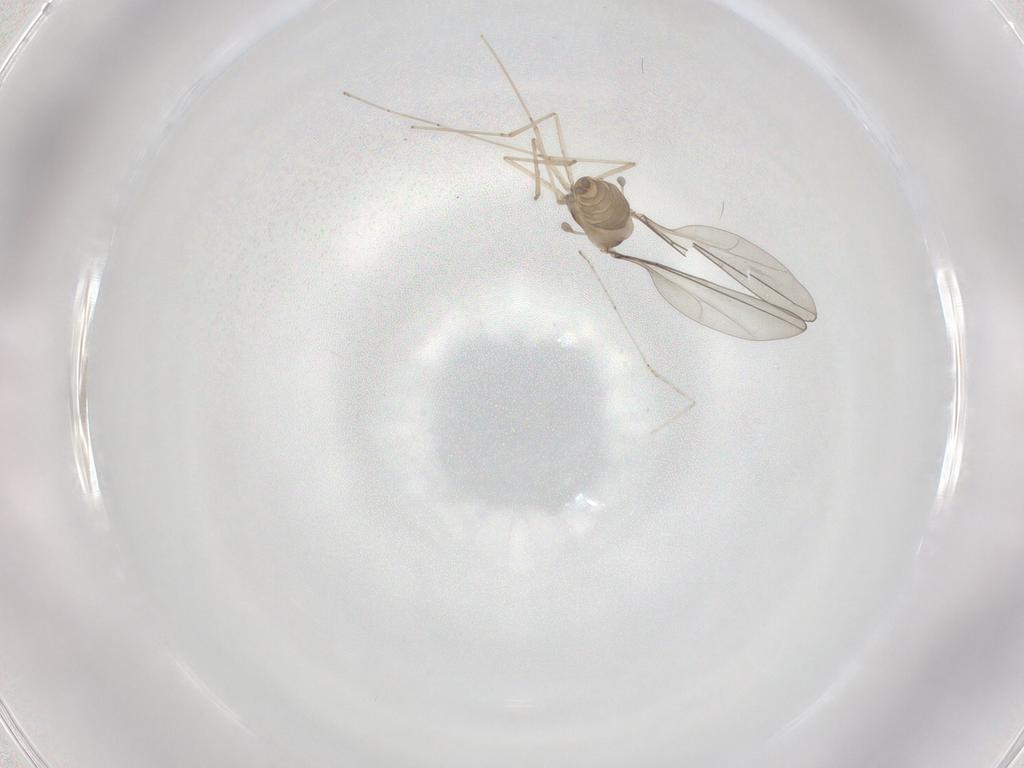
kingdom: Animalia
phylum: Arthropoda
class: Insecta
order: Diptera
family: Cecidomyiidae
